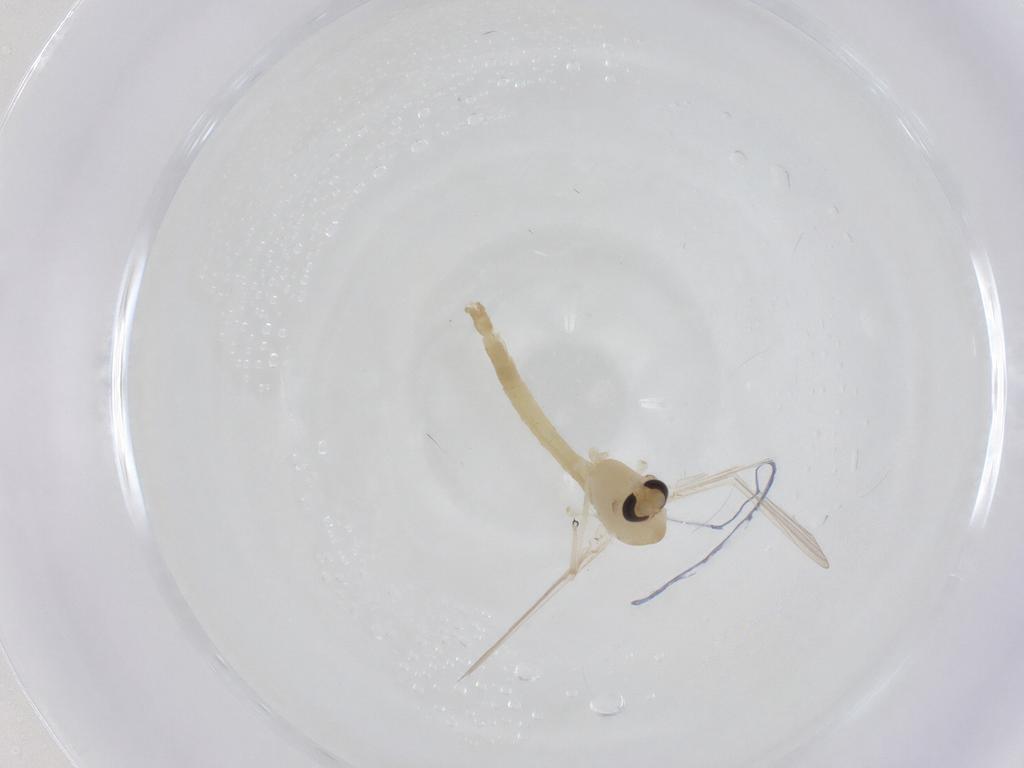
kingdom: Animalia
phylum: Arthropoda
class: Insecta
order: Diptera
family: Chironomidae
